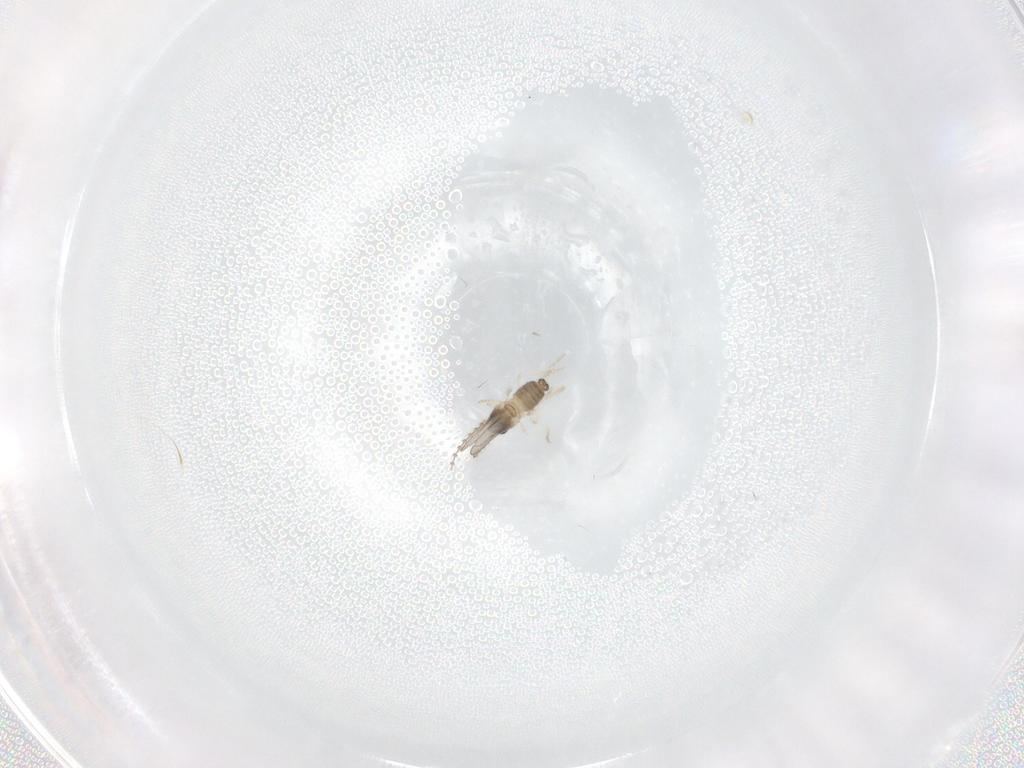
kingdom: Animalia
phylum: Arthropoda
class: Insecta
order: Diptera
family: Cecidomyiidae
